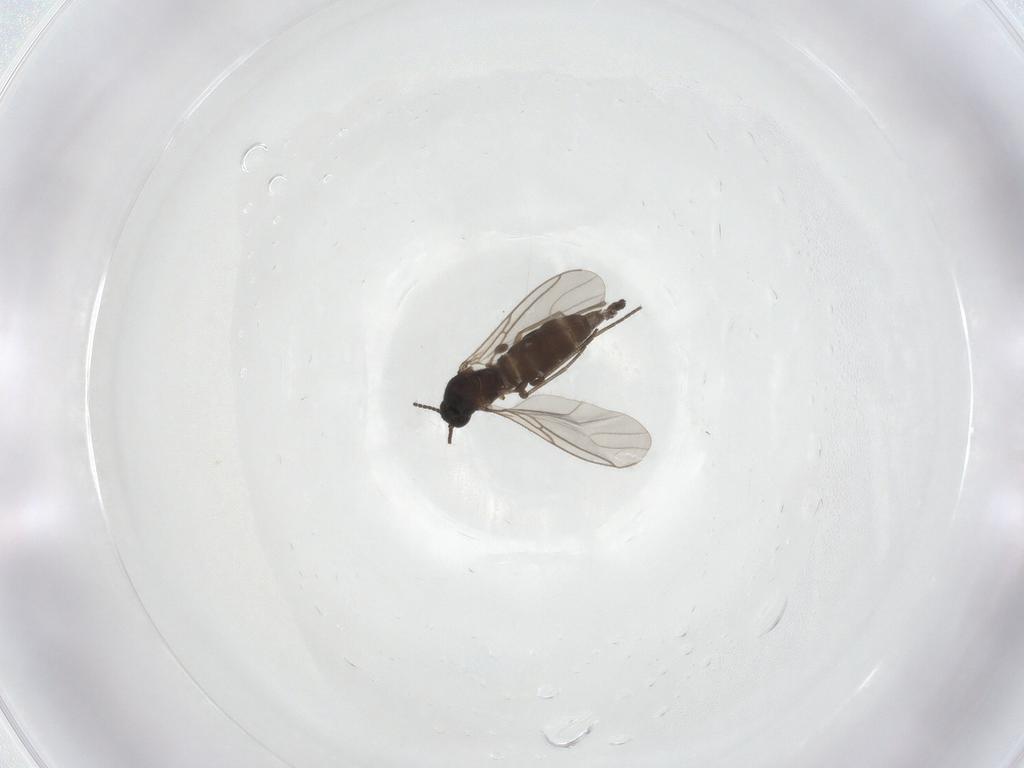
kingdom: Animalia
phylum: Arthropoda
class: Insecta
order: Diptera
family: Sciaridae
